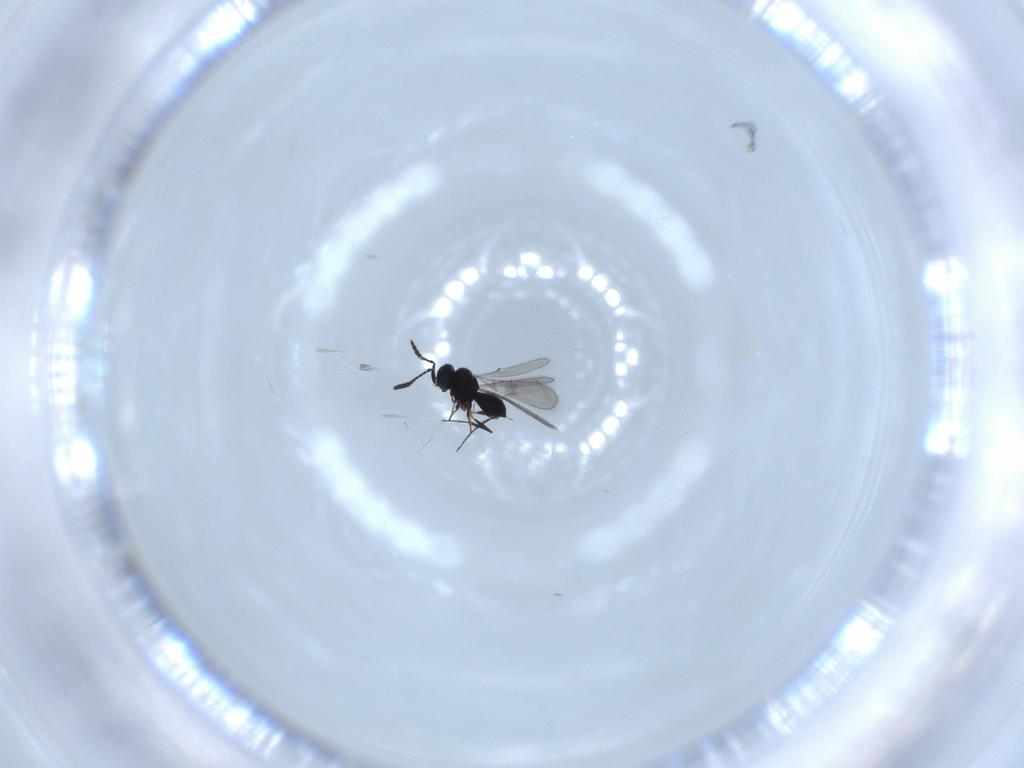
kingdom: Animalia
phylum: Arthropoda
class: Insecta
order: Hymenoptera
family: Scelionidae
